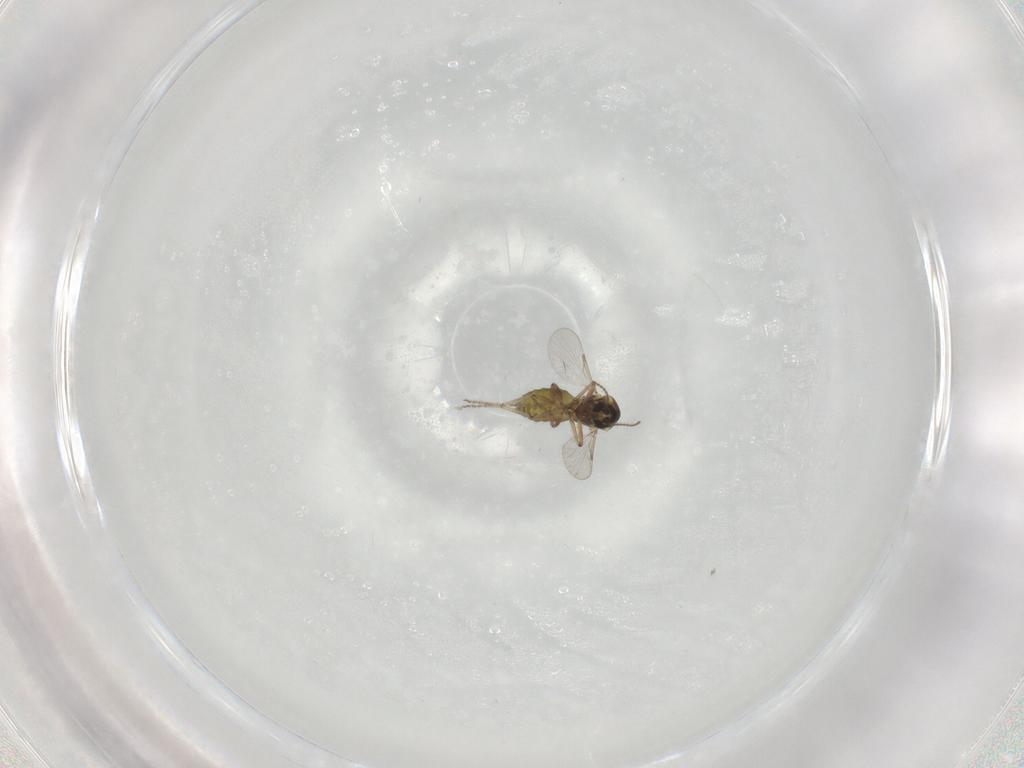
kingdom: Animalia
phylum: Arthropoda
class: Insecta
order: Diptera
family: Ceratopogonidae
